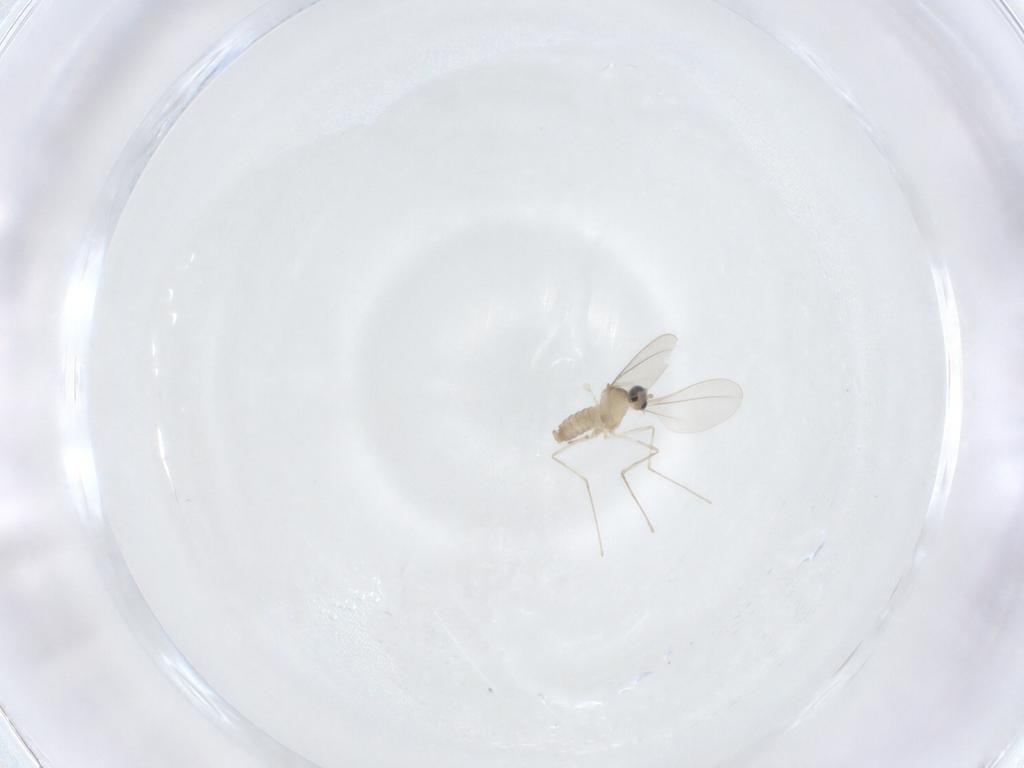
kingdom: Animalia
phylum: Arthropoda
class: Insecta
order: Diptera
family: Cecidomyiidae
